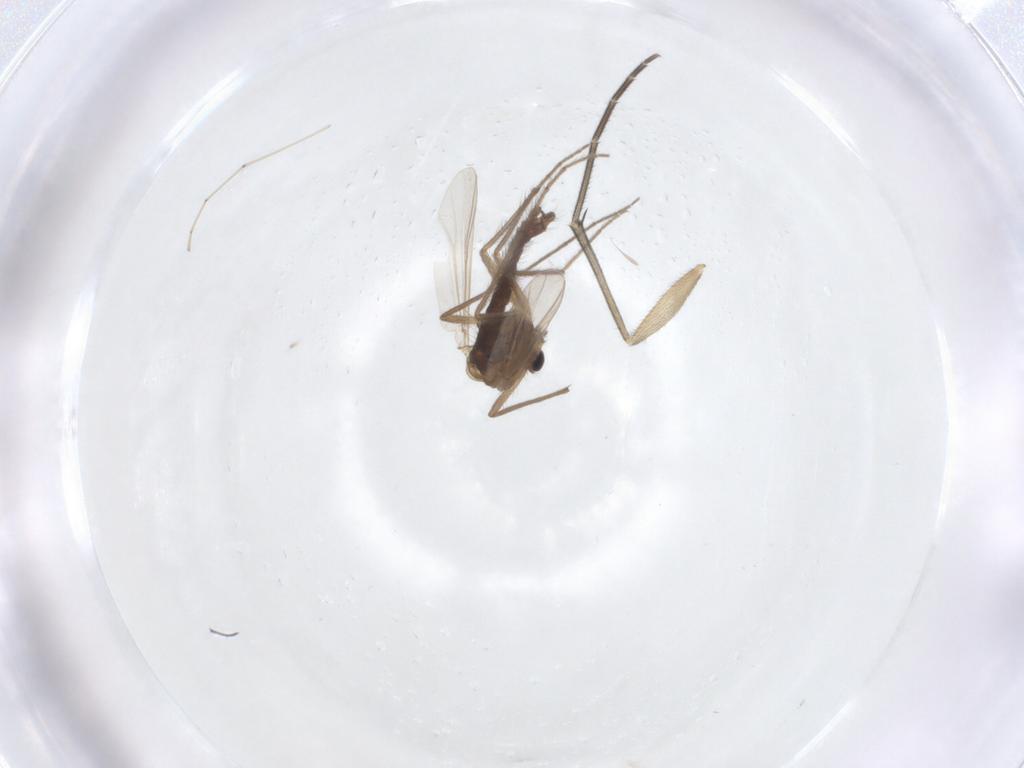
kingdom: Animalia
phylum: Arthropoda
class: Insecta
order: Diptera
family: Keroplatidae
